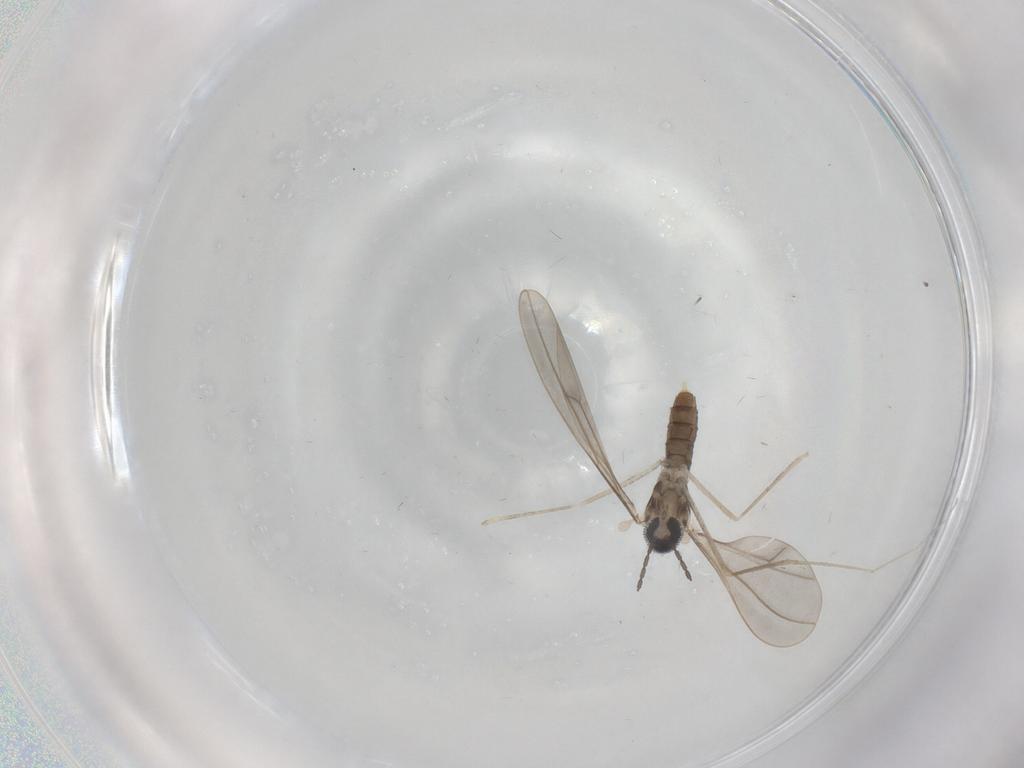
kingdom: Animalia
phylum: Arthropoda
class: Insecta
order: Diptera
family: Cecidomyiidae
